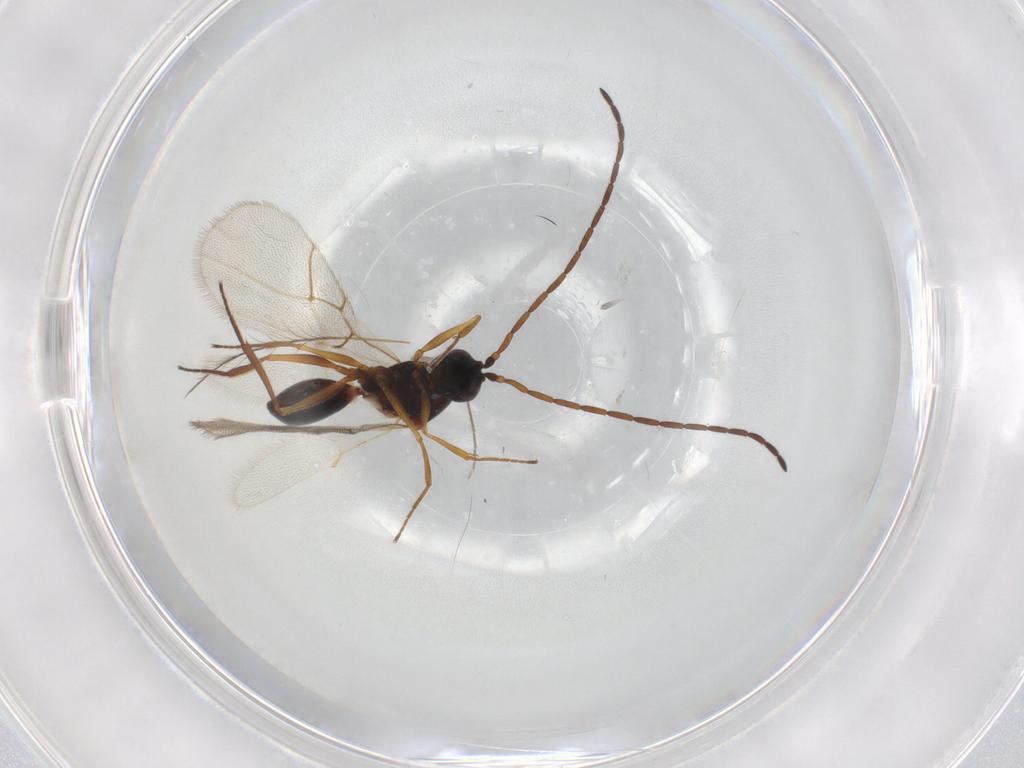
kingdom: Animalia
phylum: Arthropoda
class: Insecta
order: Hymenoptera
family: Figitidae
